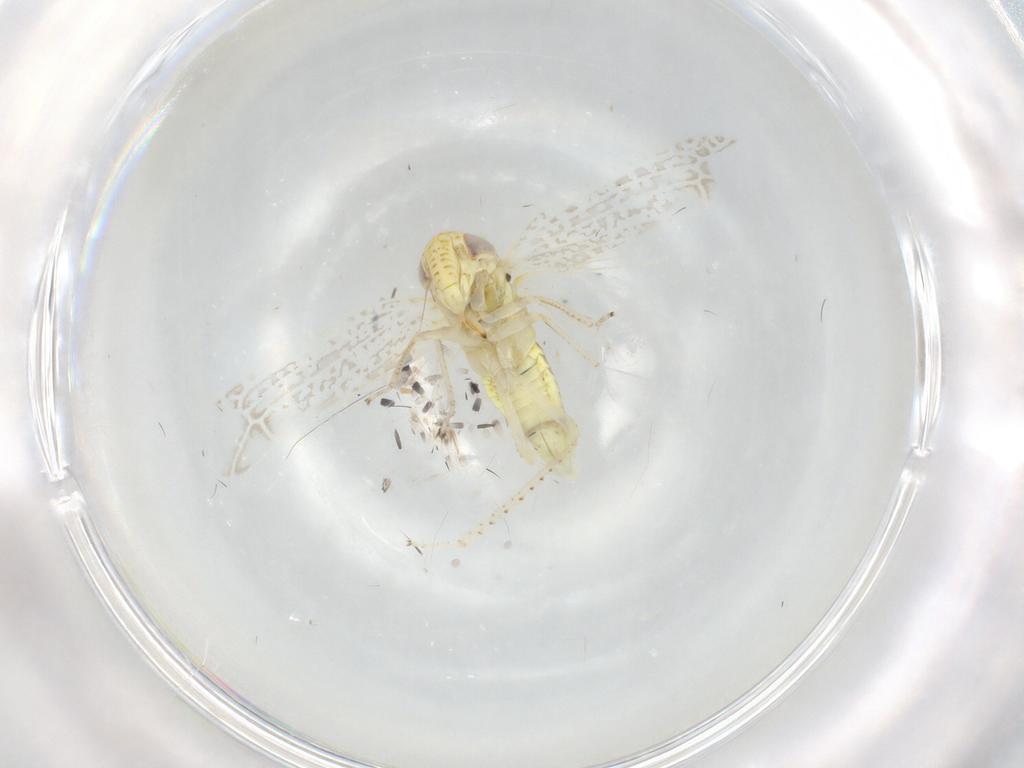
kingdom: Animalia
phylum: Arthropoda
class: Insecta
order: Hemiptera
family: Cicadellidae
